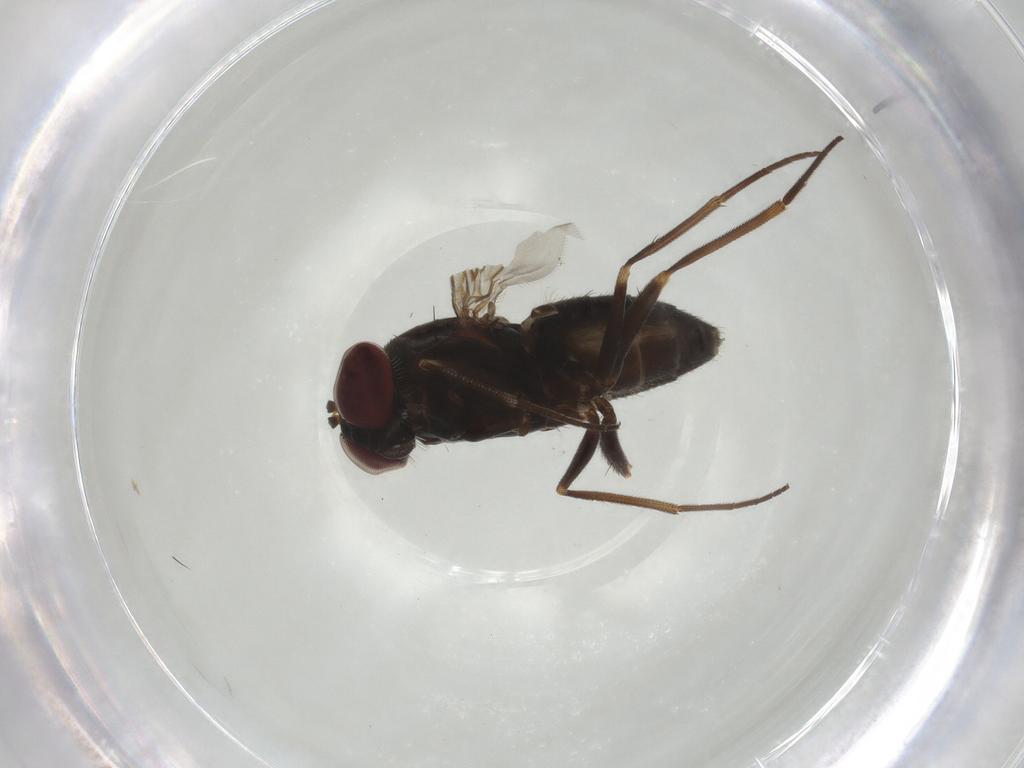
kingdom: Animalia
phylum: Arthropoda
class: Insecta
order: Diptera
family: Dolichopodidae
